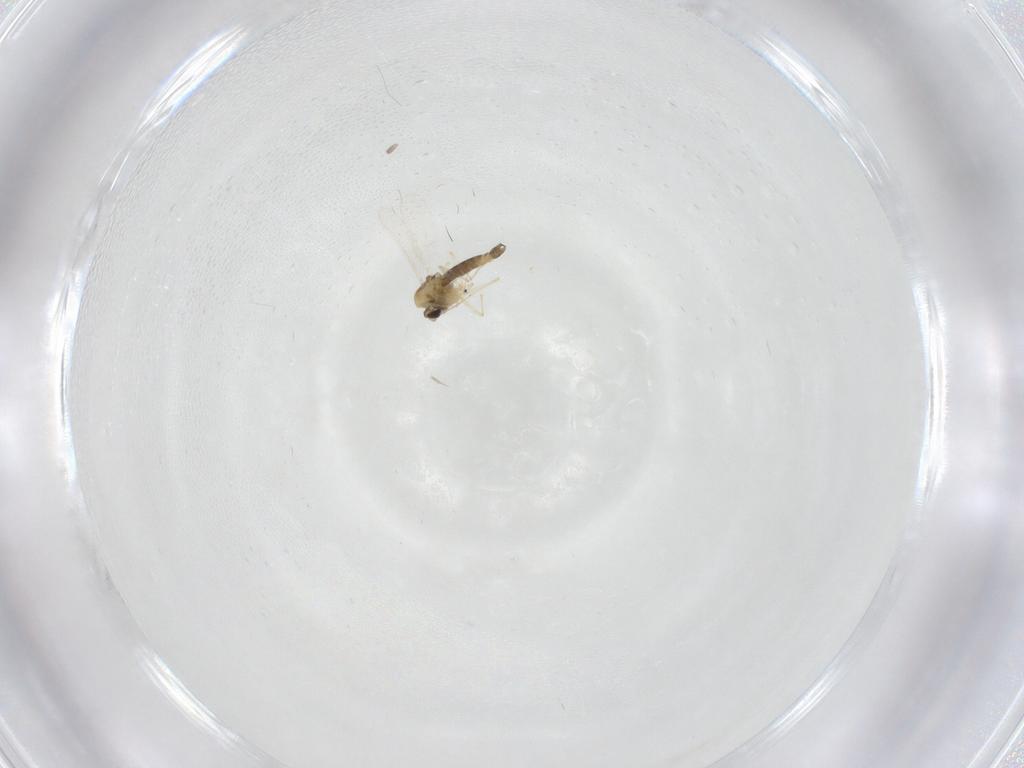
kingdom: Animalia
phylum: Arthropoda
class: Insecta
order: Diptera
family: Chironomidae
